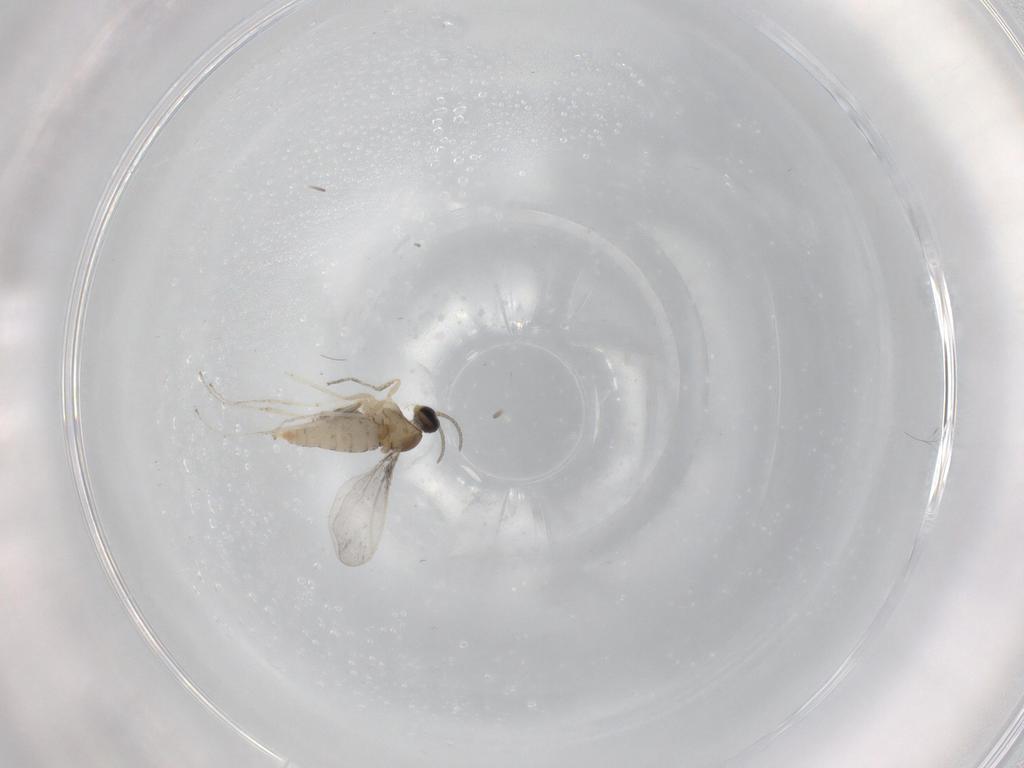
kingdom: Animalia
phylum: Arthropoda
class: Insecta
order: Diptera
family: Cecidomyiidae
